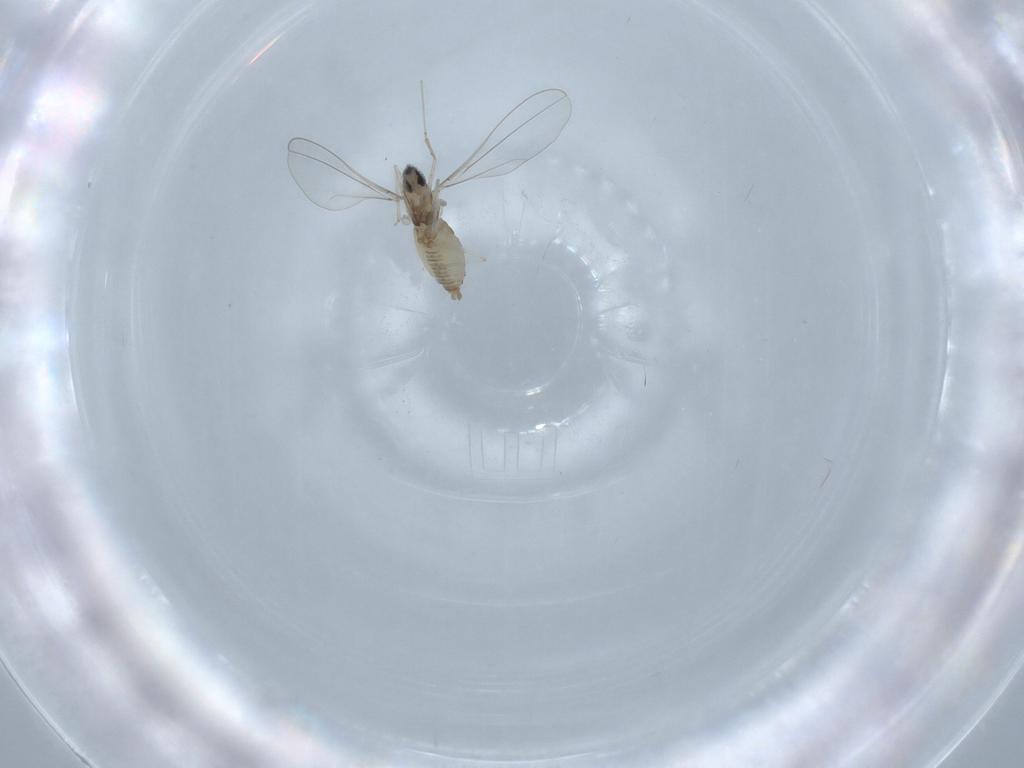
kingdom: Animalia
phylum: Arthropoda
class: Insecta
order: Diptera
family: Cecidomyiidae
